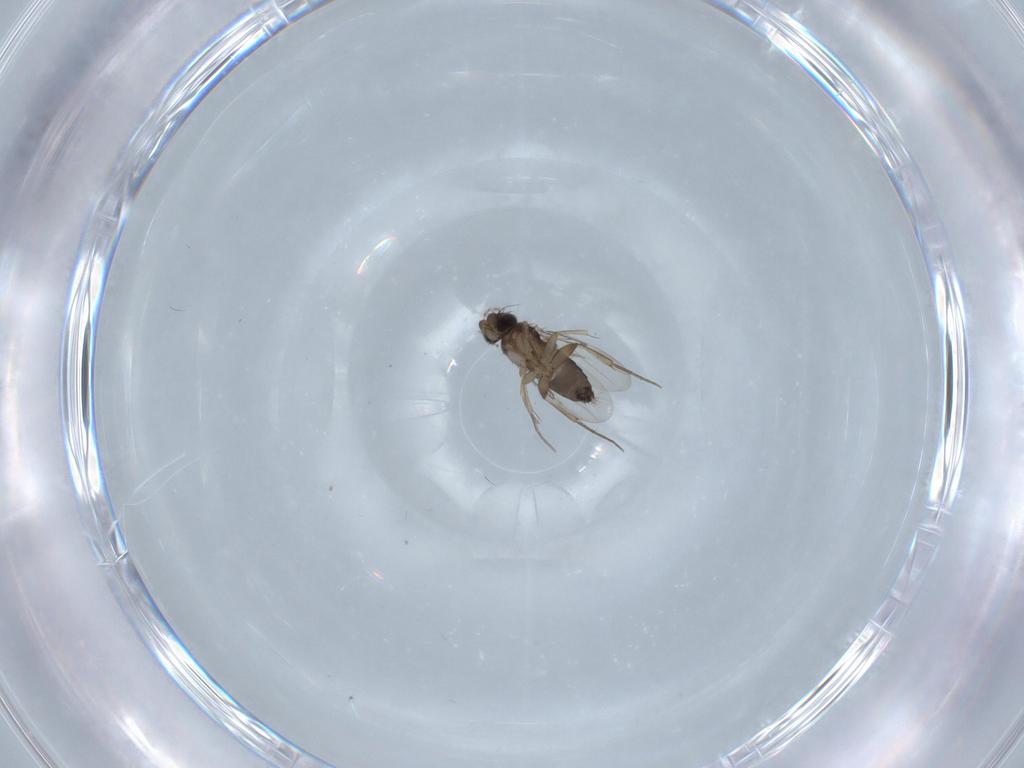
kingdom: Animalia
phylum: Arthropoda
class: Insecta
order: Diptera
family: Phoridae
